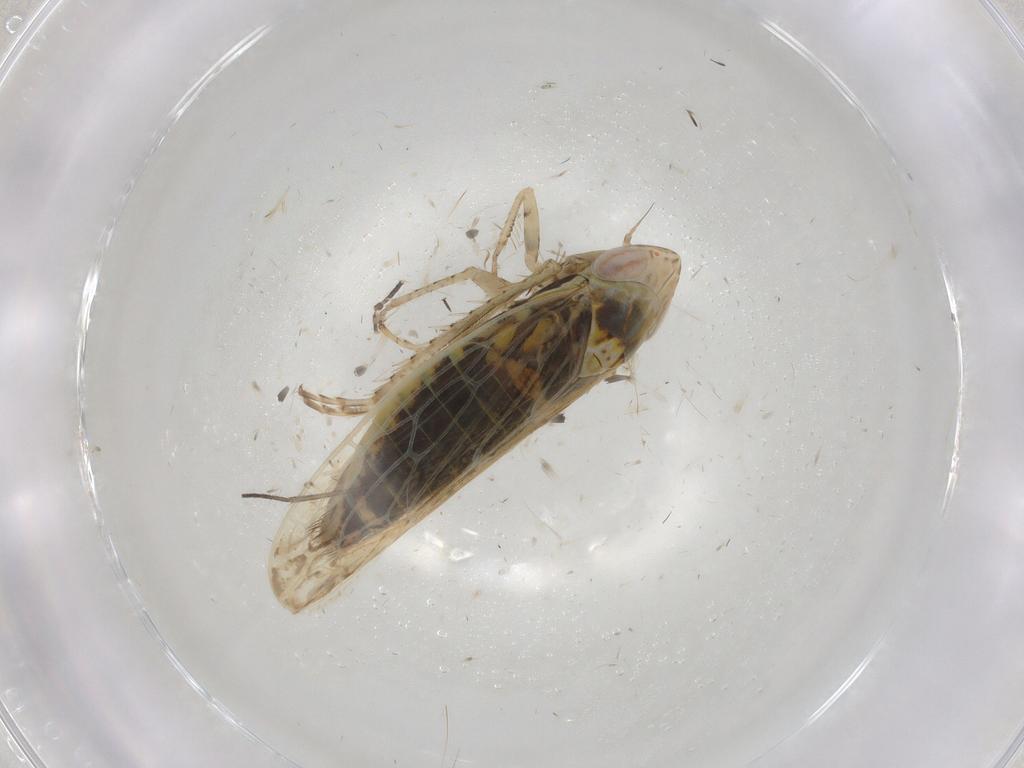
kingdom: Animalia
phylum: Arthropoda
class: Insecta
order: Hemiptera
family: Cicadellidae
